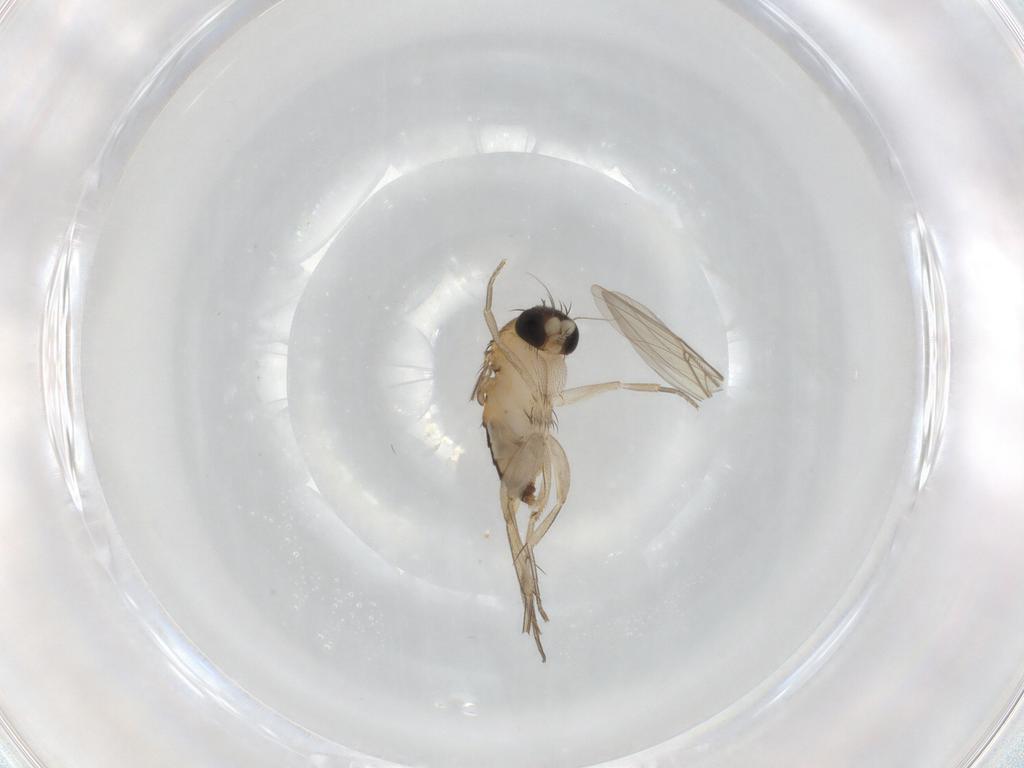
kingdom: Animalia
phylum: Arthropoda
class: Insecta
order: Diptera
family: Phoridae
